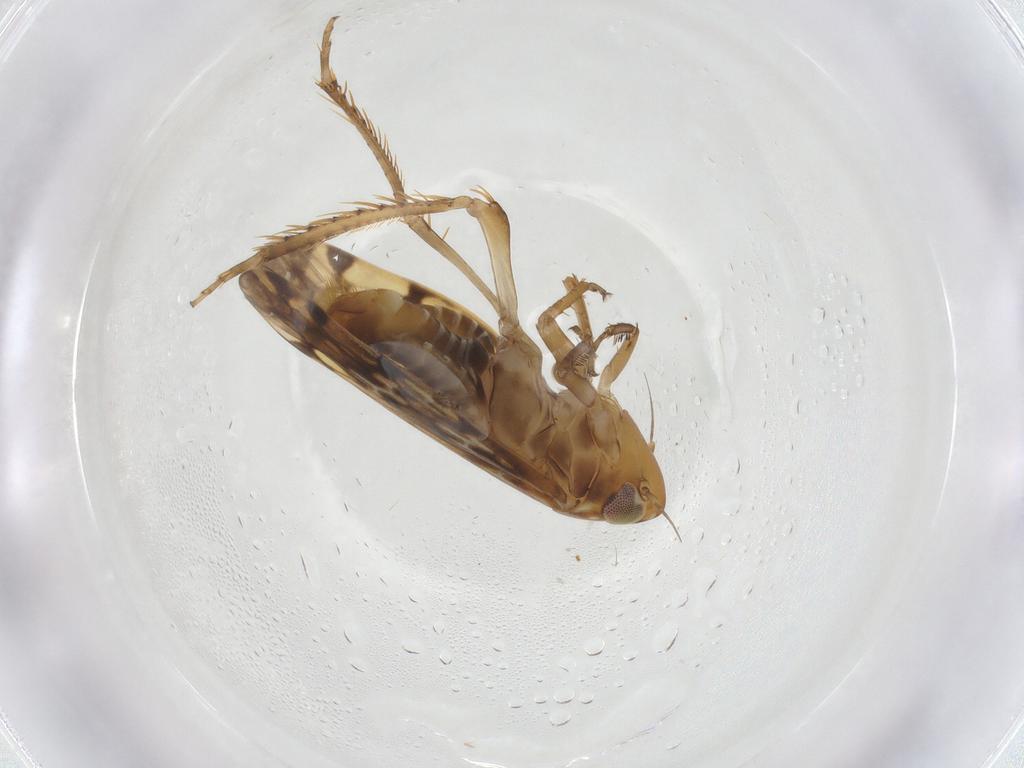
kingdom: Animalia
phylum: Arthropoda
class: Insecta
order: Hemiptera
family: Cicadellidae
